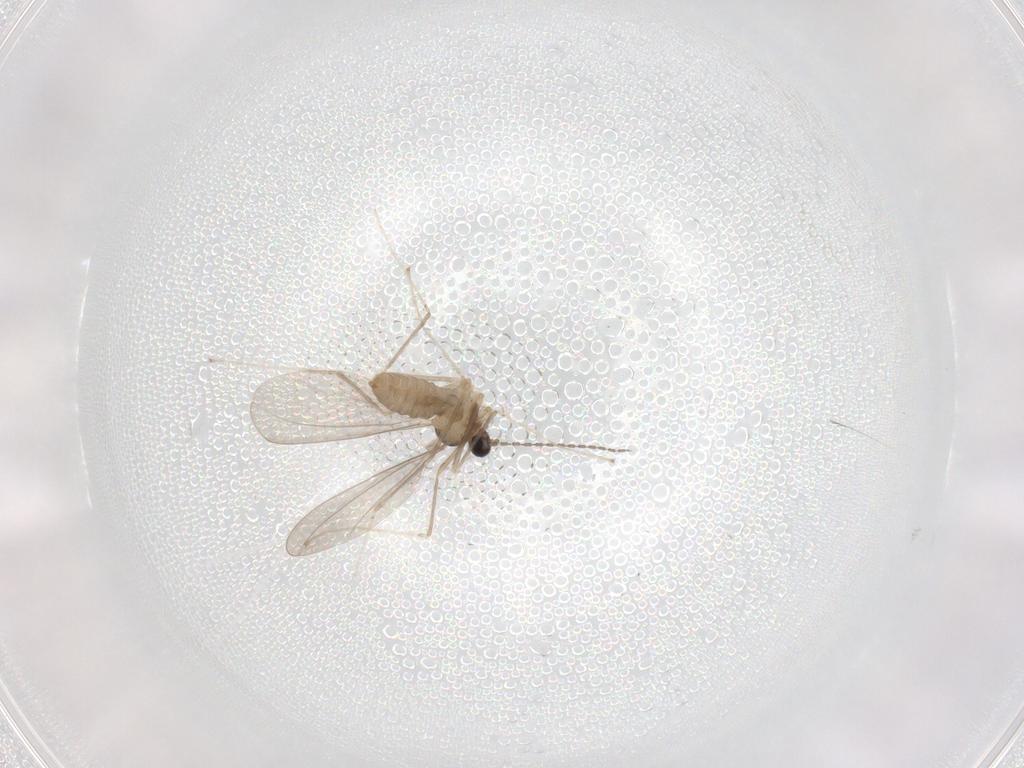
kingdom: Animalia
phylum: Arthropoda
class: Insecta
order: Diptera
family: Cecidomyiidae
